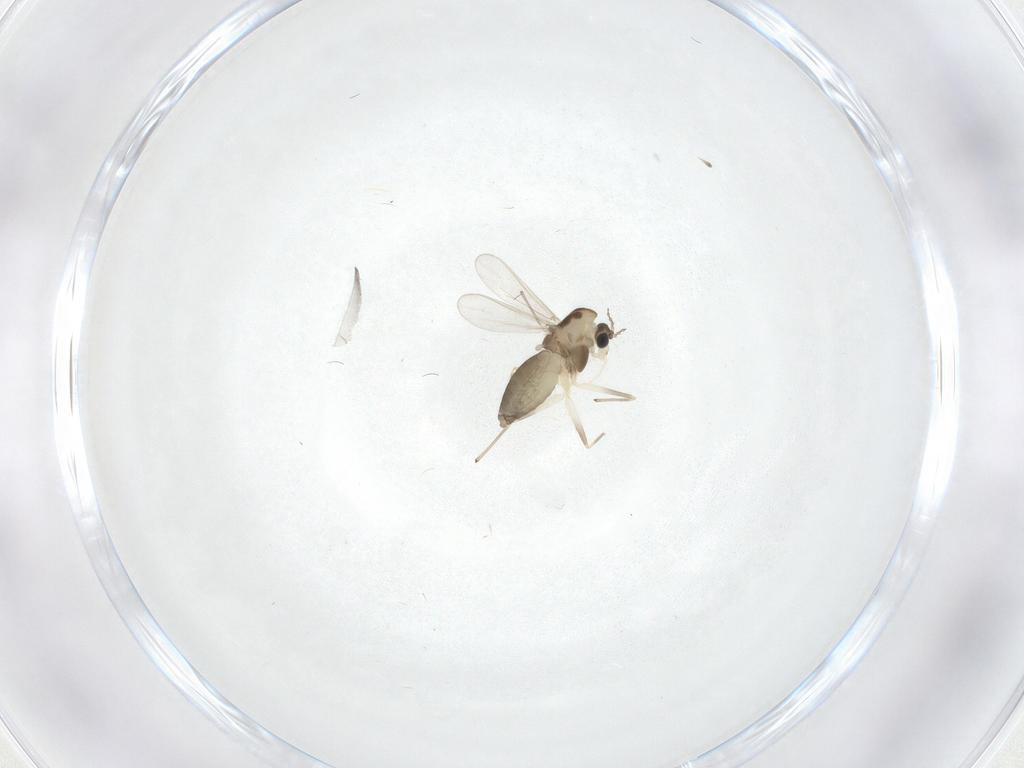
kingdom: Animalia
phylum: Arthropoda
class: Insecta
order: Diptera
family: Chironomidae
